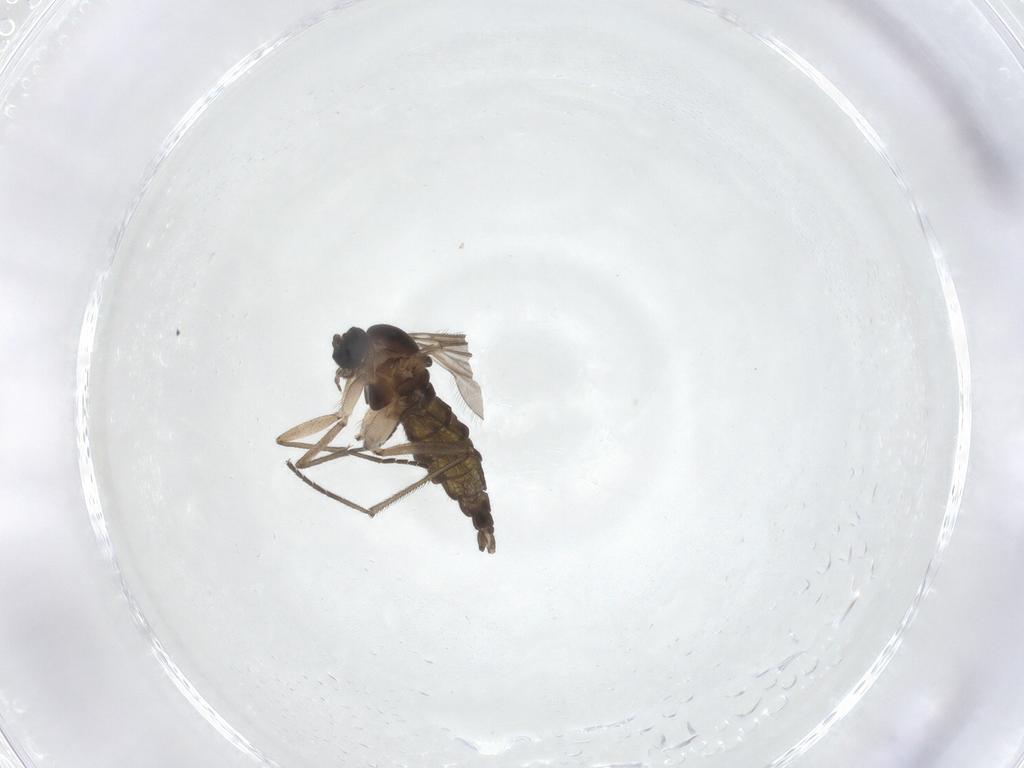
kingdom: Animalia
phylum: Arthropoda
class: Insecta
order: Diptera
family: Sciaridae
